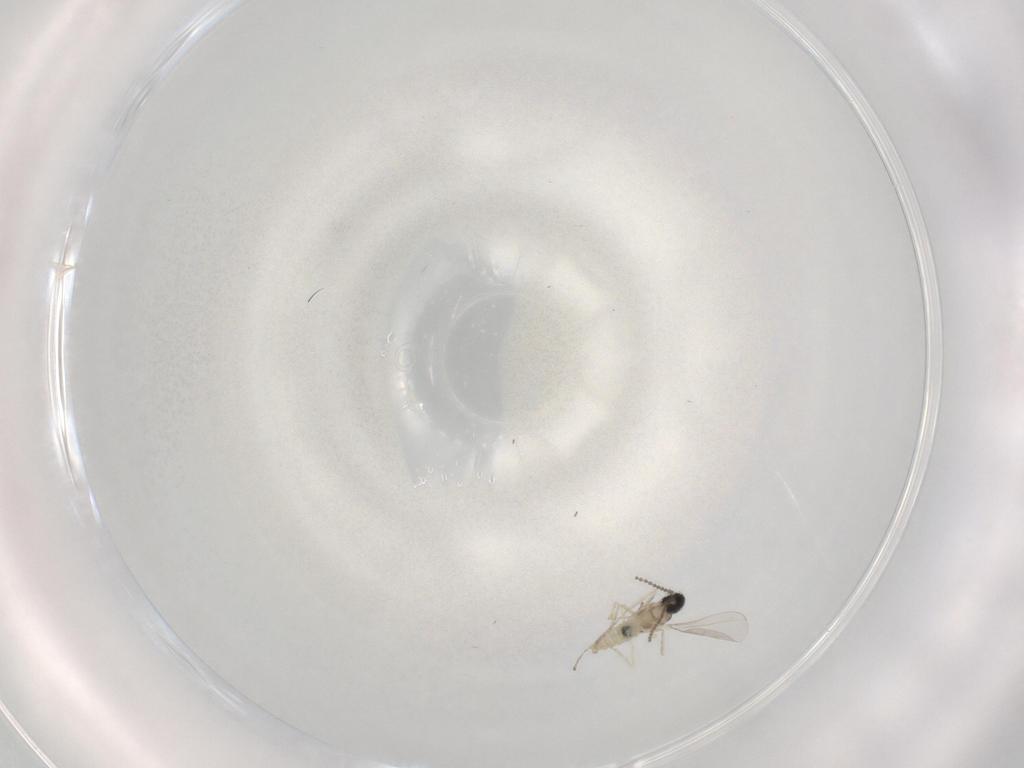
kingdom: Animalia
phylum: Arthropoda
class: Insecta
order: Diptera
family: Cecidomyiidae
